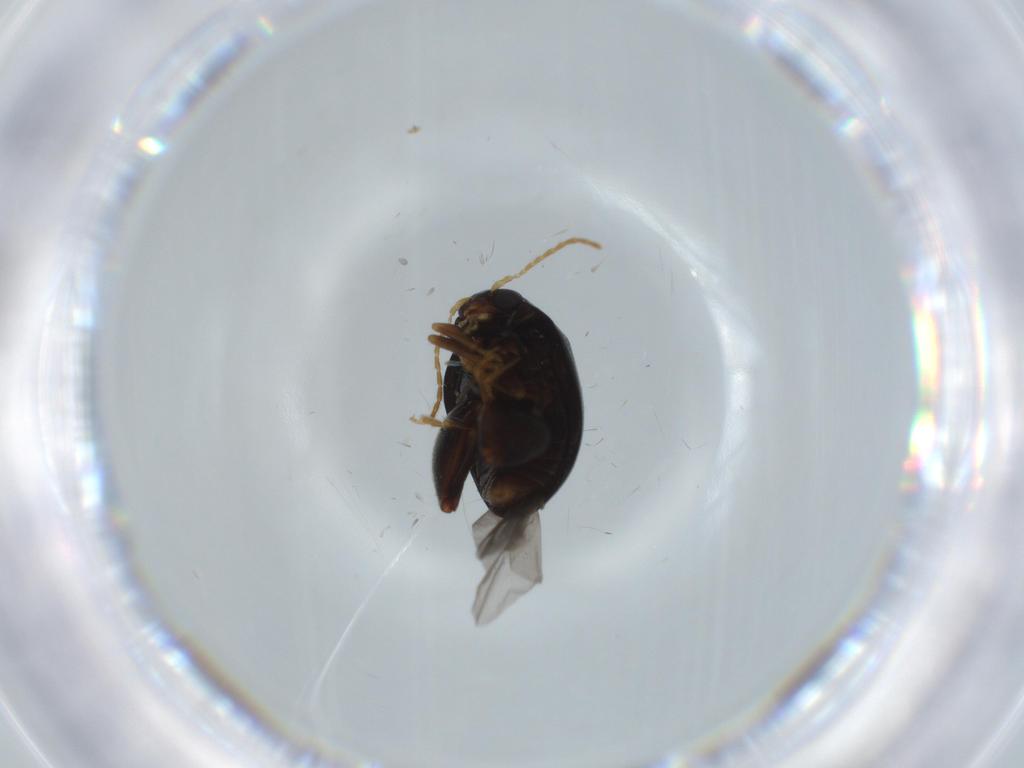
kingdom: Animalia
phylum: Arthropoda
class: Insecta
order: Coleoptera
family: Chrysomelidae
